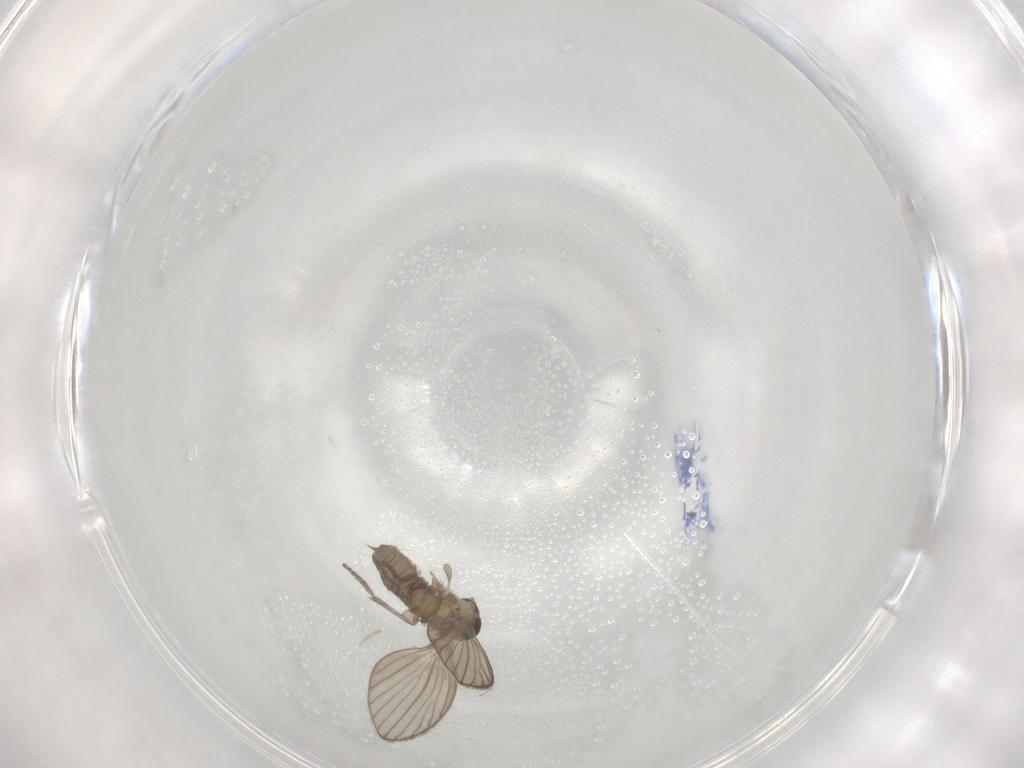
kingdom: Animalia
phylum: Arthropoda
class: Insecta
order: Diptera
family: Psychodidae
